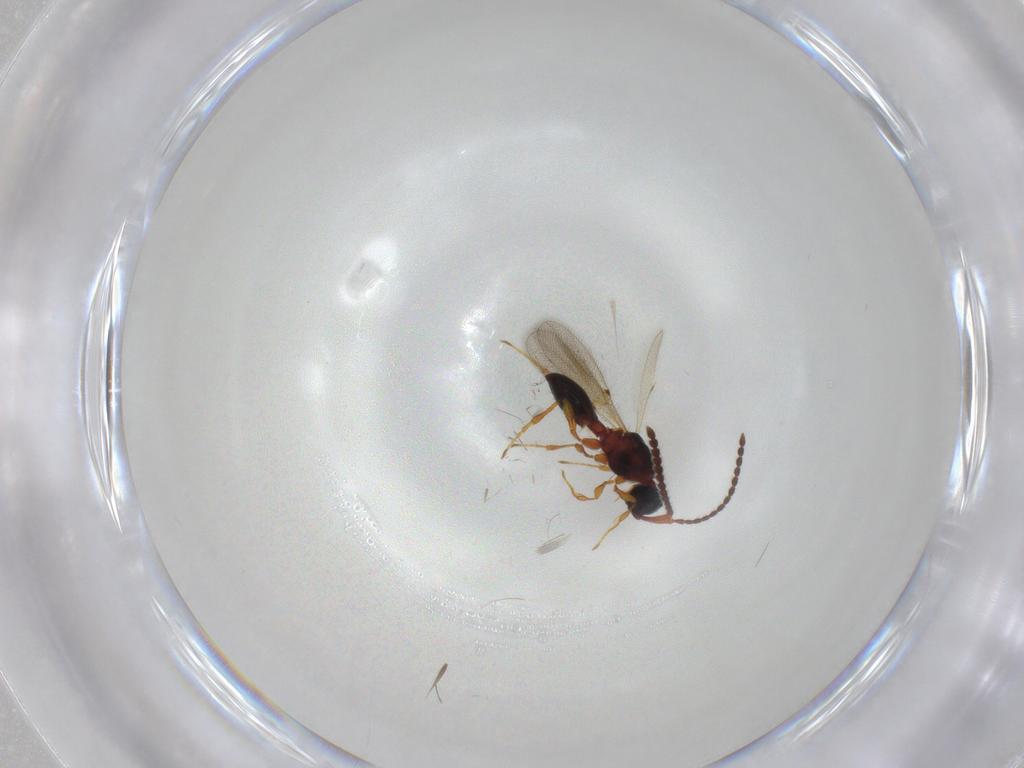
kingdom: Animalia
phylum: Arthropoda
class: Insecta
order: Hymenoptera
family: Diapriidae
